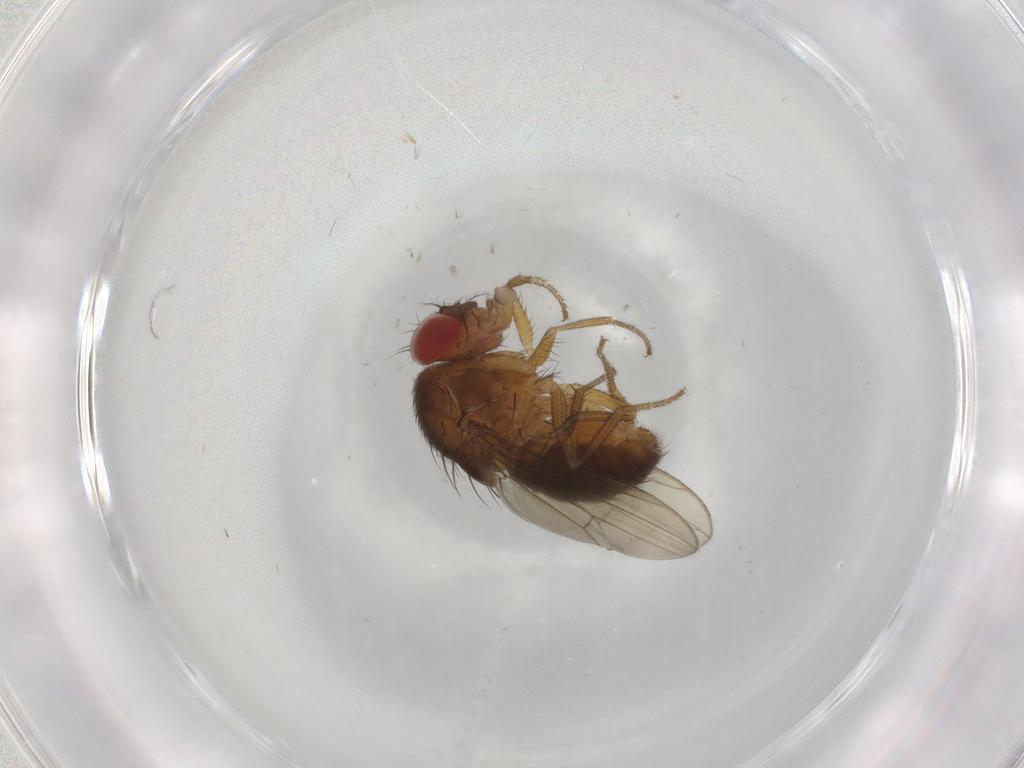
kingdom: Animalia
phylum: Arthropoda
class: Insecta
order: Diptera
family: Drosophilidae
